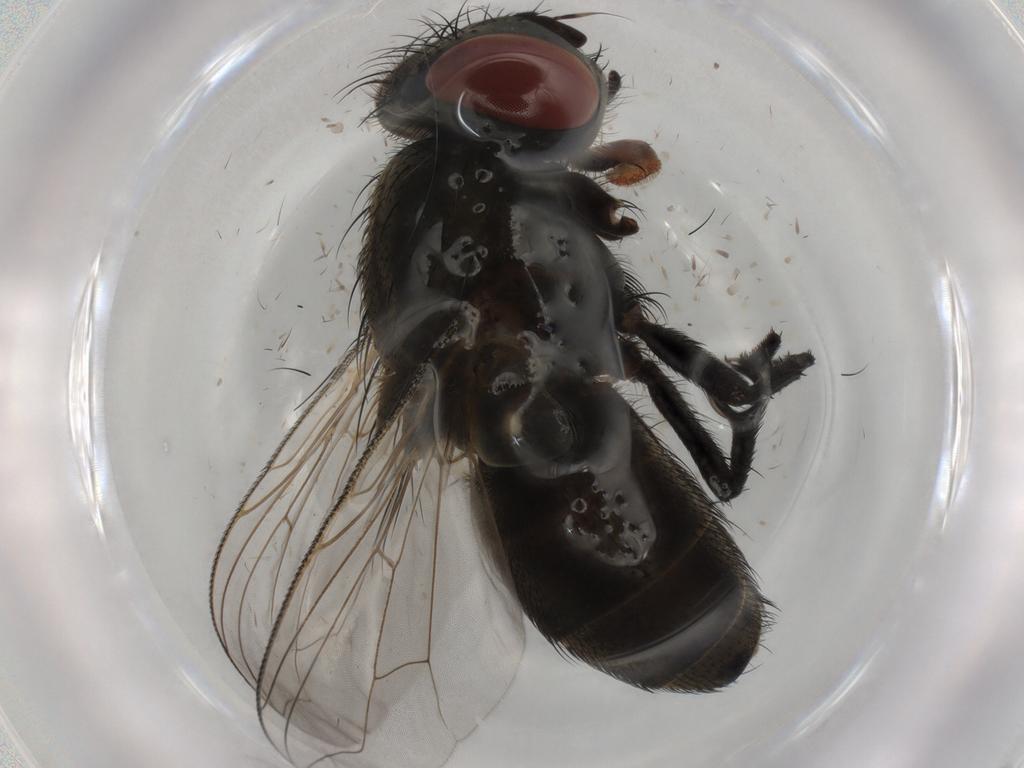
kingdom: Animalia
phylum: Arthropoda
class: Insecta
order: Diptera
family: Sarcophagidae
